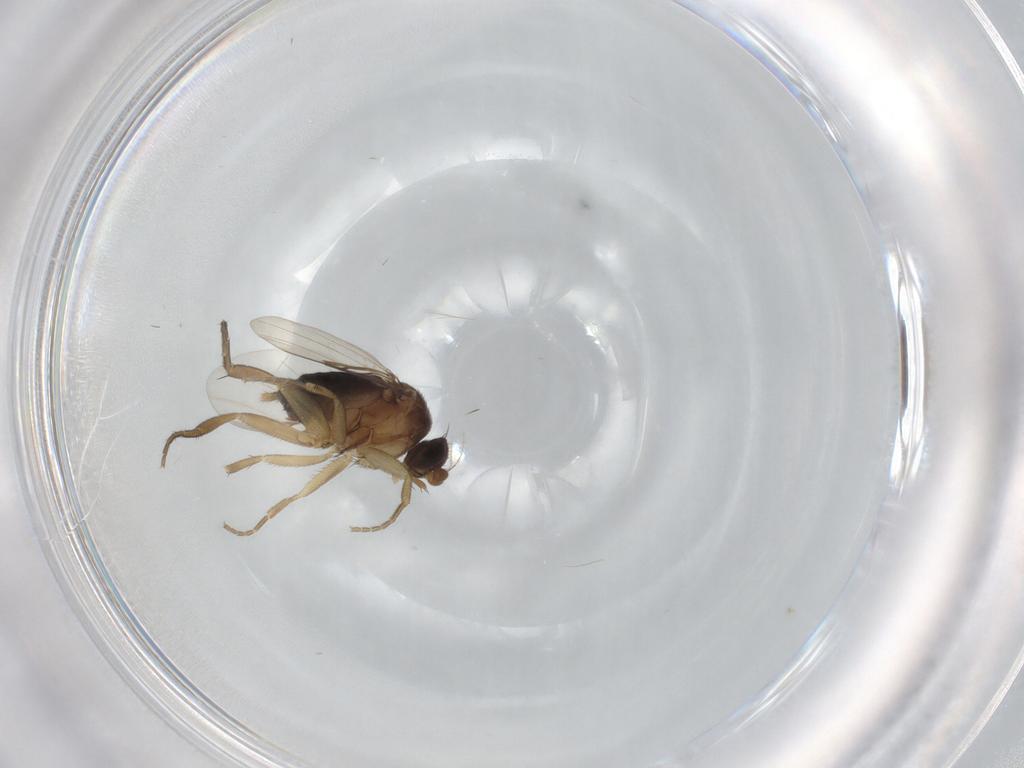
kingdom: Animalia
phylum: Arthropoda
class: Insecta
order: Diptera
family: Phoridae
